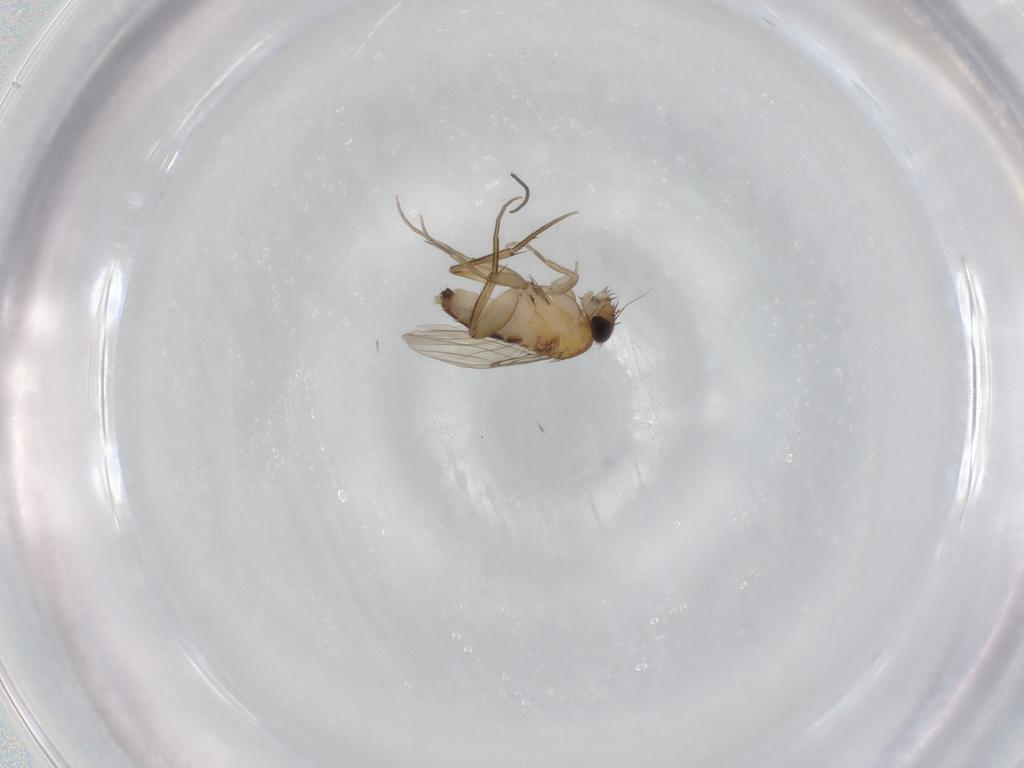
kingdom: Animalia
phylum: Arthropoda
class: Insecta
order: Diptera
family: Phoridae
